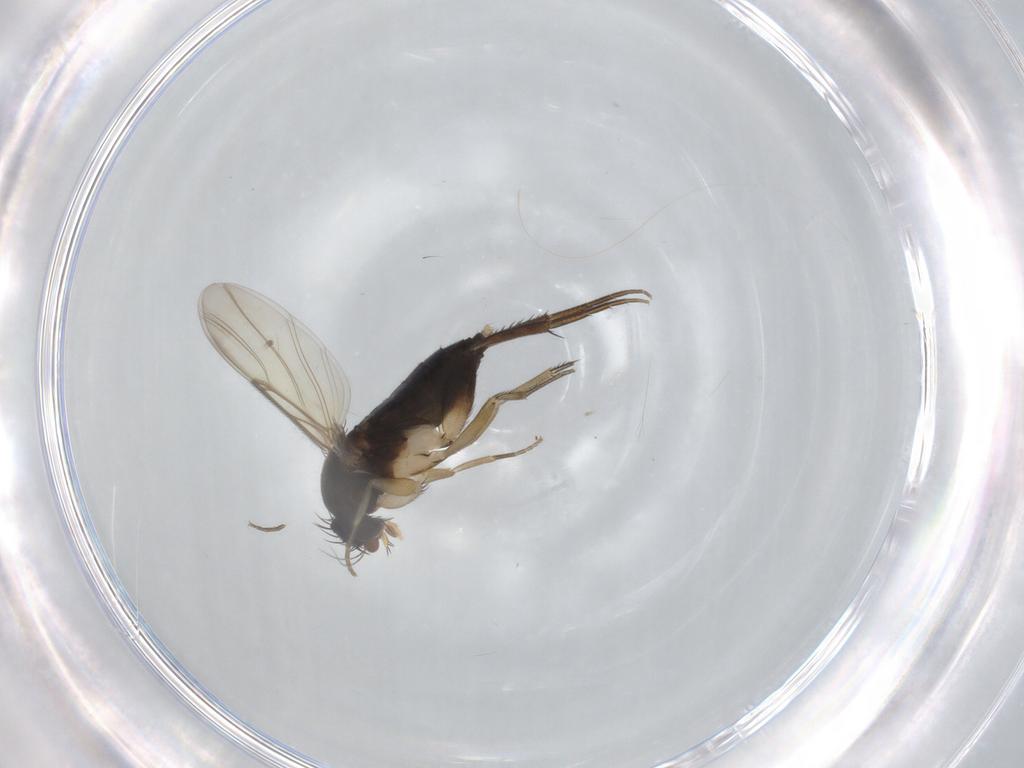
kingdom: Animalia
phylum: Arthropoda
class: Insecta
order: Diptera
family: Phoridae
